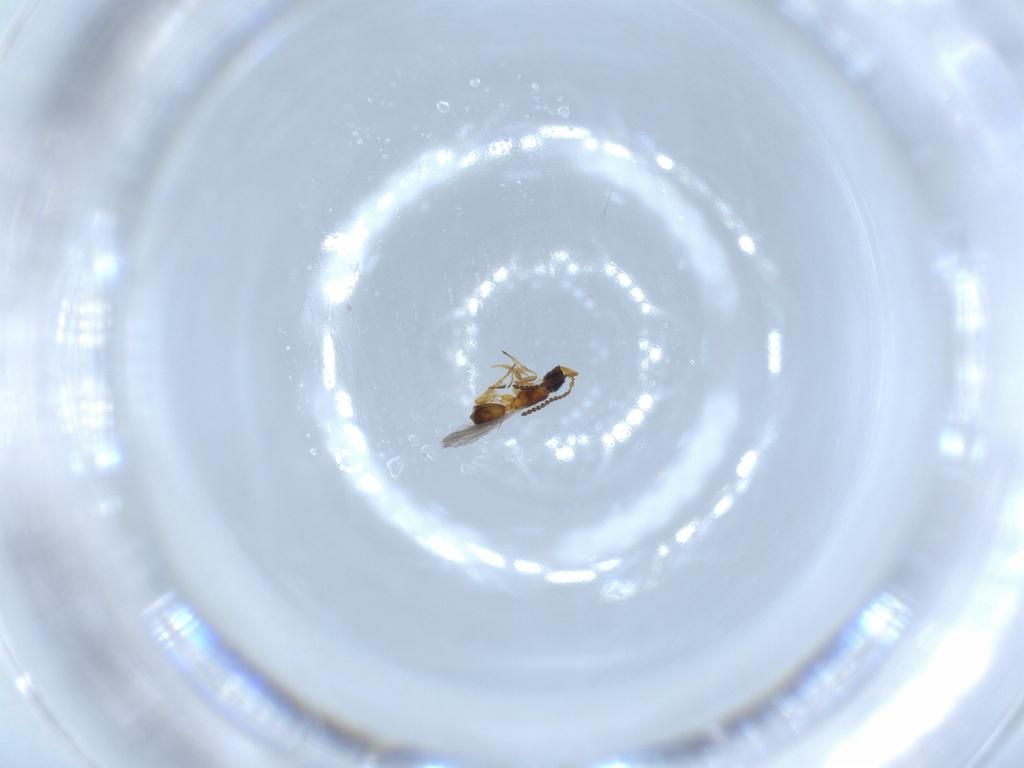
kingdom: Animalia
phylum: Arthropoda
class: Insecta
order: Hymenoptera
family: Diapriidae
